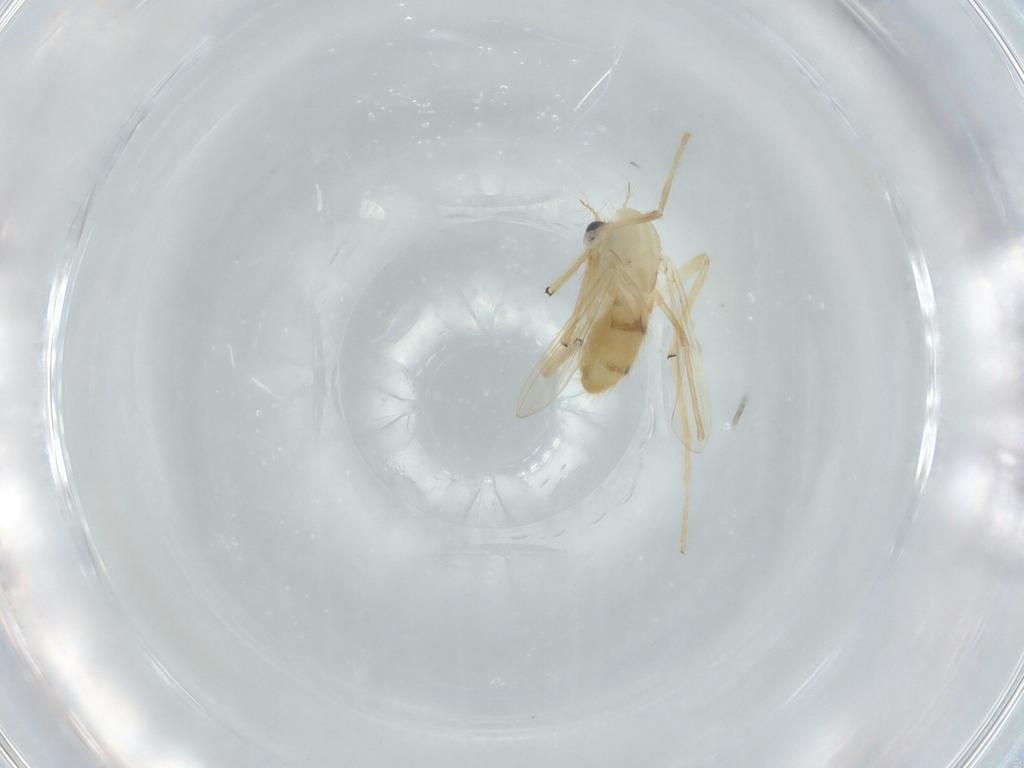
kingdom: Animalia
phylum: Arthropoda
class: Insecta
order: Diptera
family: Chironomidae
